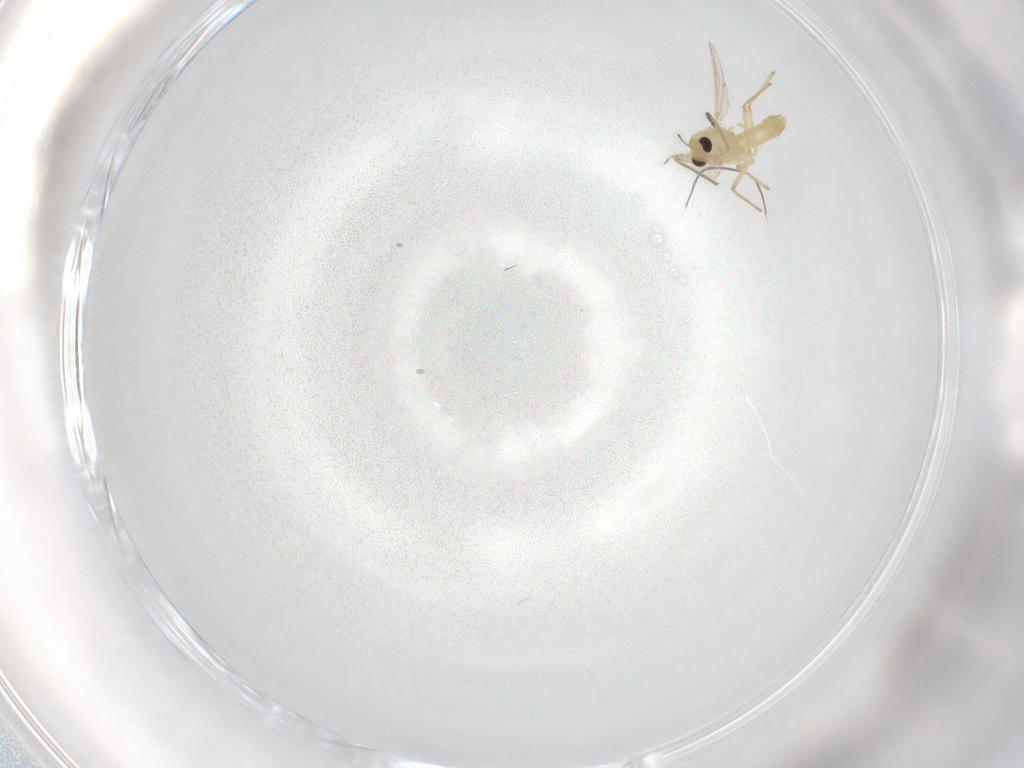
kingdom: Animalia
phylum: Arthropoda
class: Insecta
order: Diptera
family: Chironomidae
